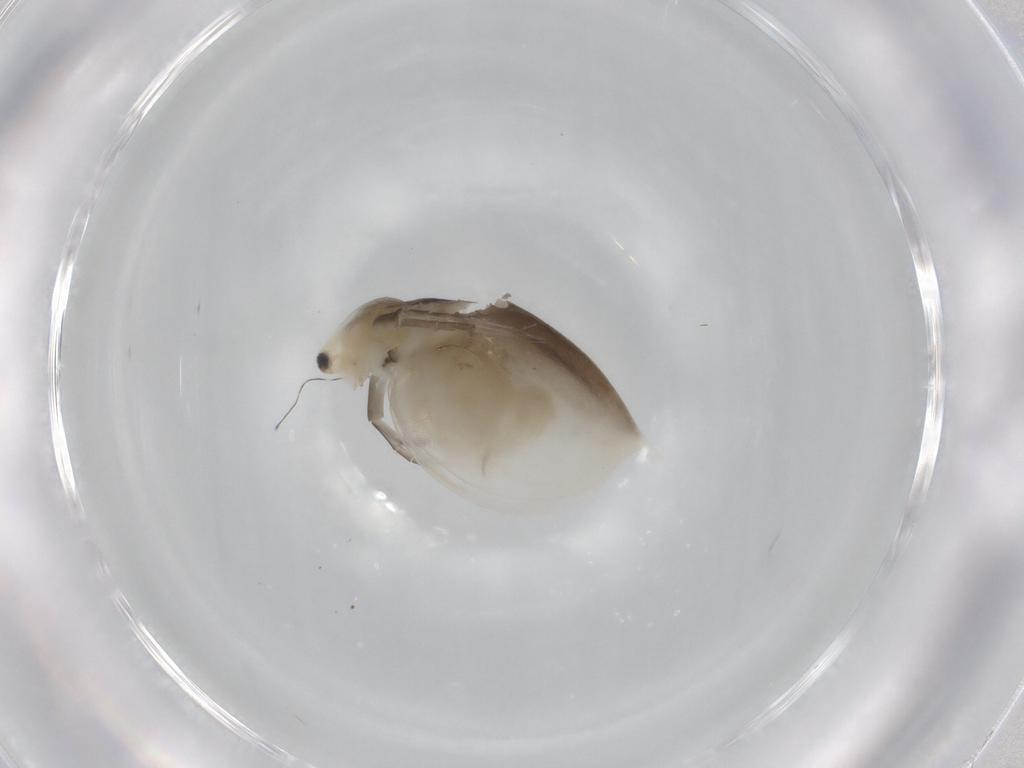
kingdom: Animalia
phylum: Arthropoda
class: Branchiopoda
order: Diplostraca
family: Daphniidae
